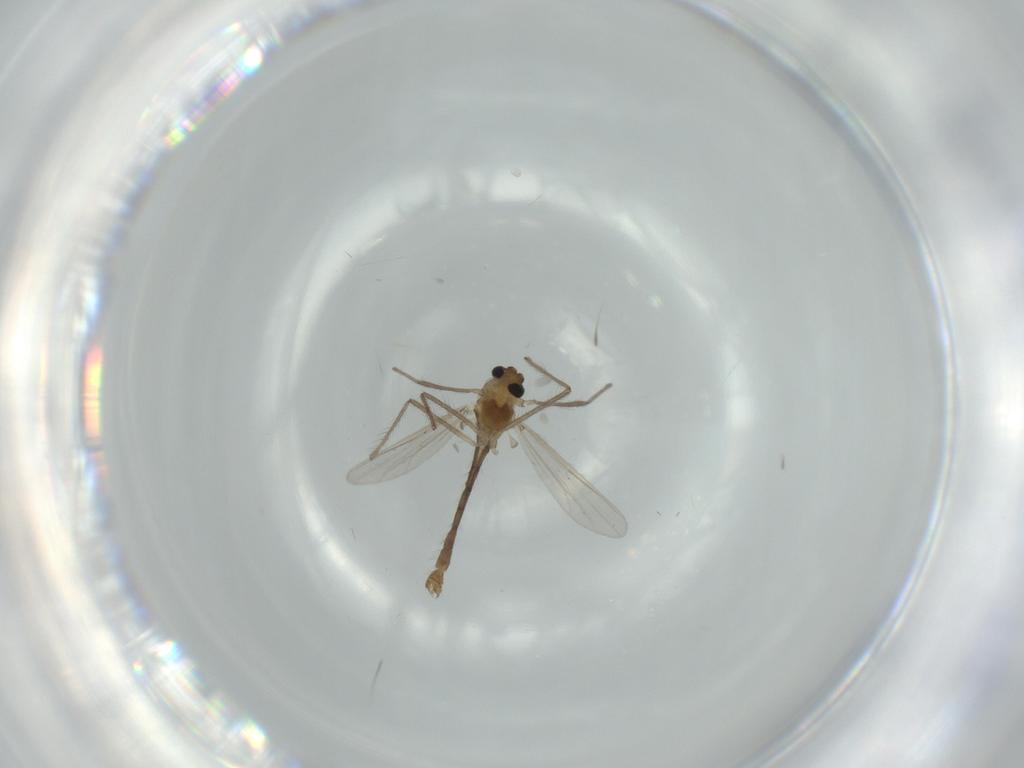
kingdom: Animalia
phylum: Arthropoda
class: Insecta
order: Diptera
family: Chironomidae
